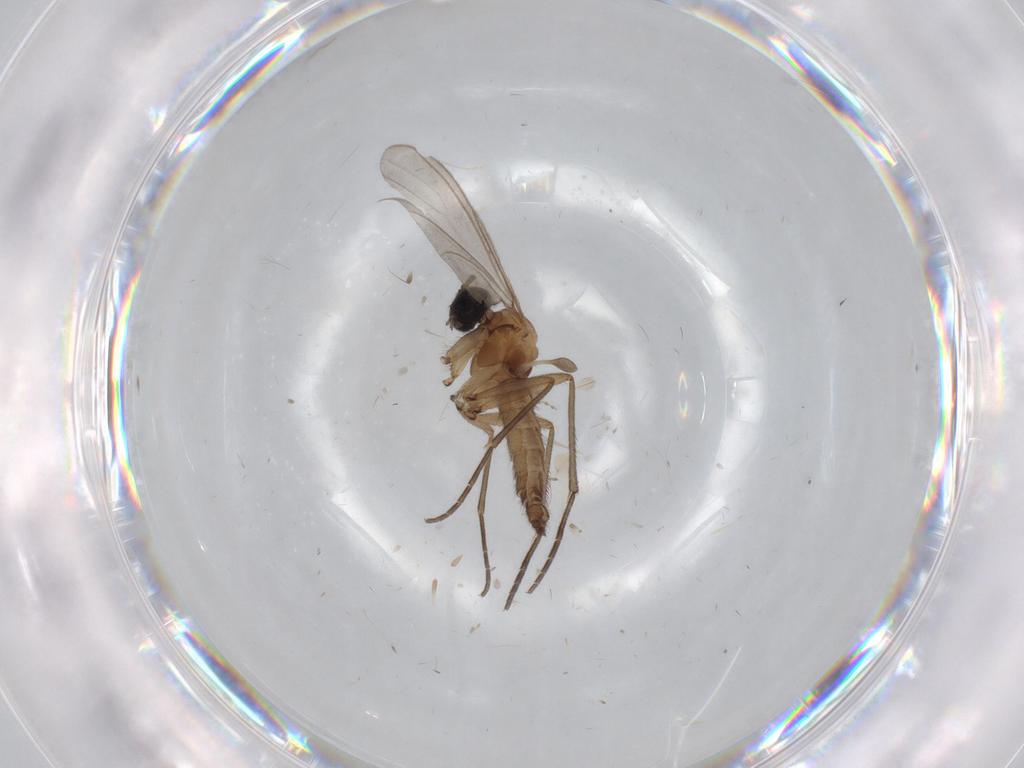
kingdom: Animalia
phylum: Arthropoda
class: Insecta
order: Diptera
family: Sciaridae
